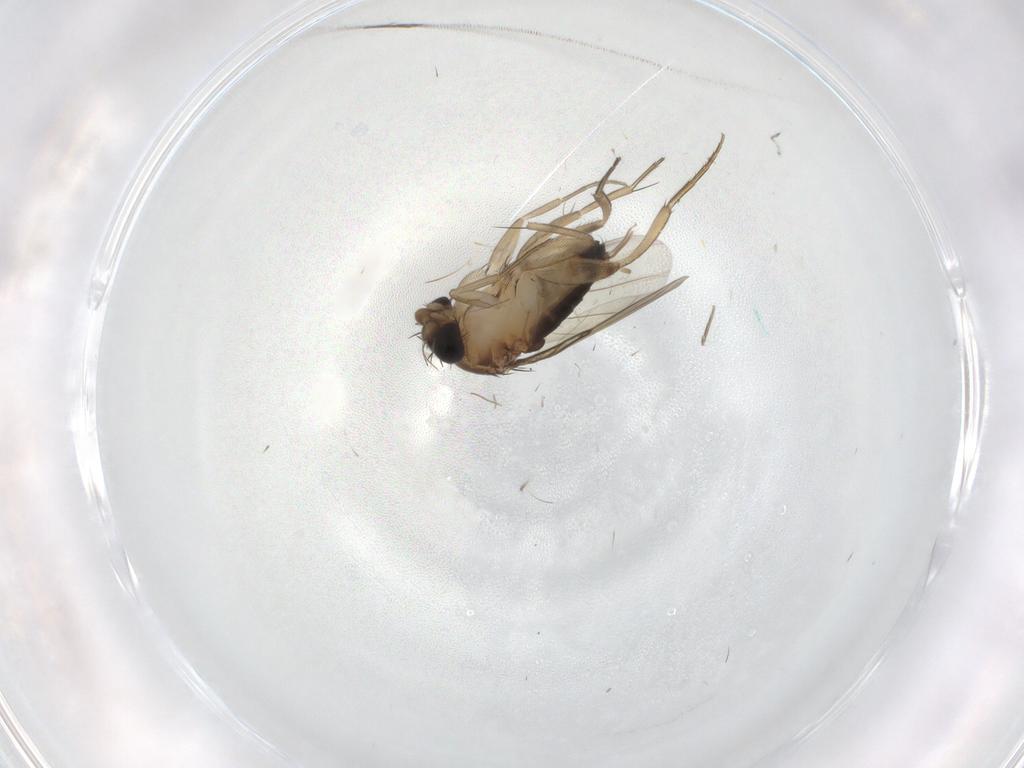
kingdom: Animalia
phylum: Arthropoda
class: Insecta
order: Diptera
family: Phoridae
